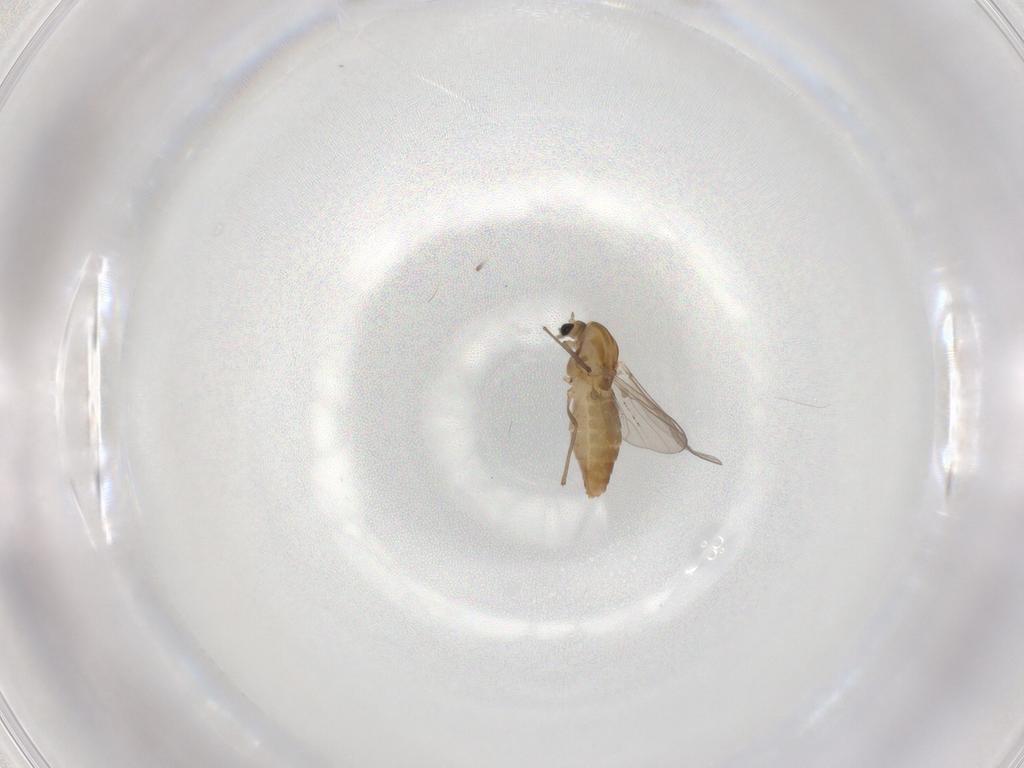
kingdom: Animalia
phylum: Arthropoda
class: Insecta
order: Diptera
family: Chironomidae
